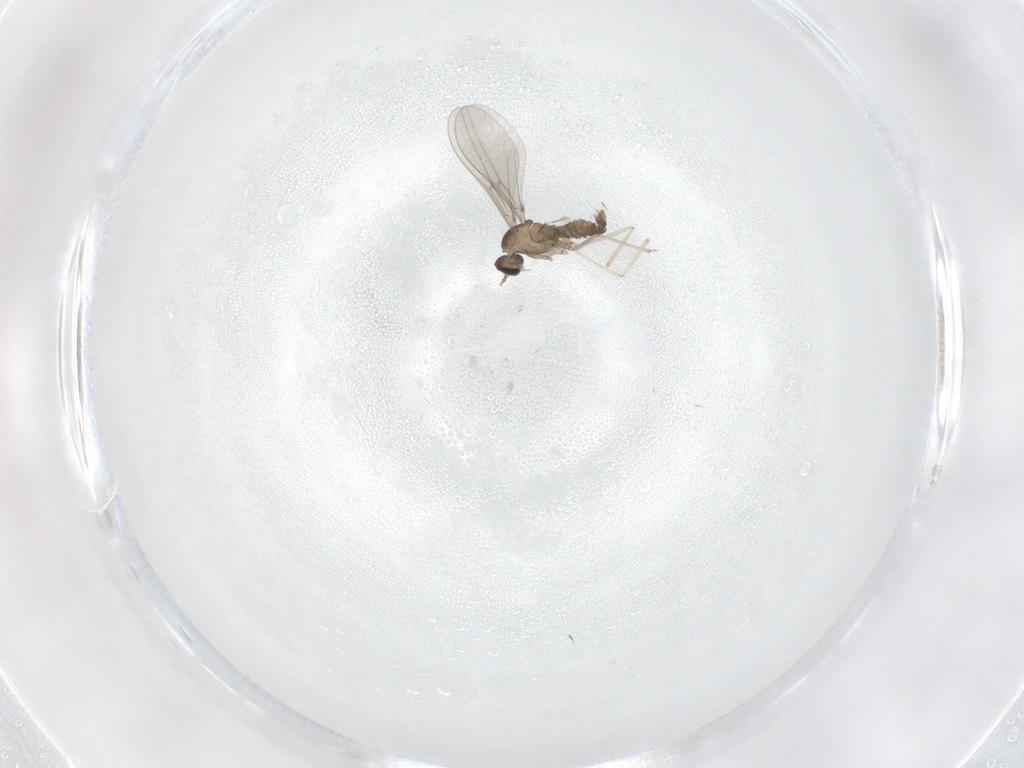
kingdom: Animalia
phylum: Arthropoda
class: Insecta
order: Diptera
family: Cecidomyiidae
